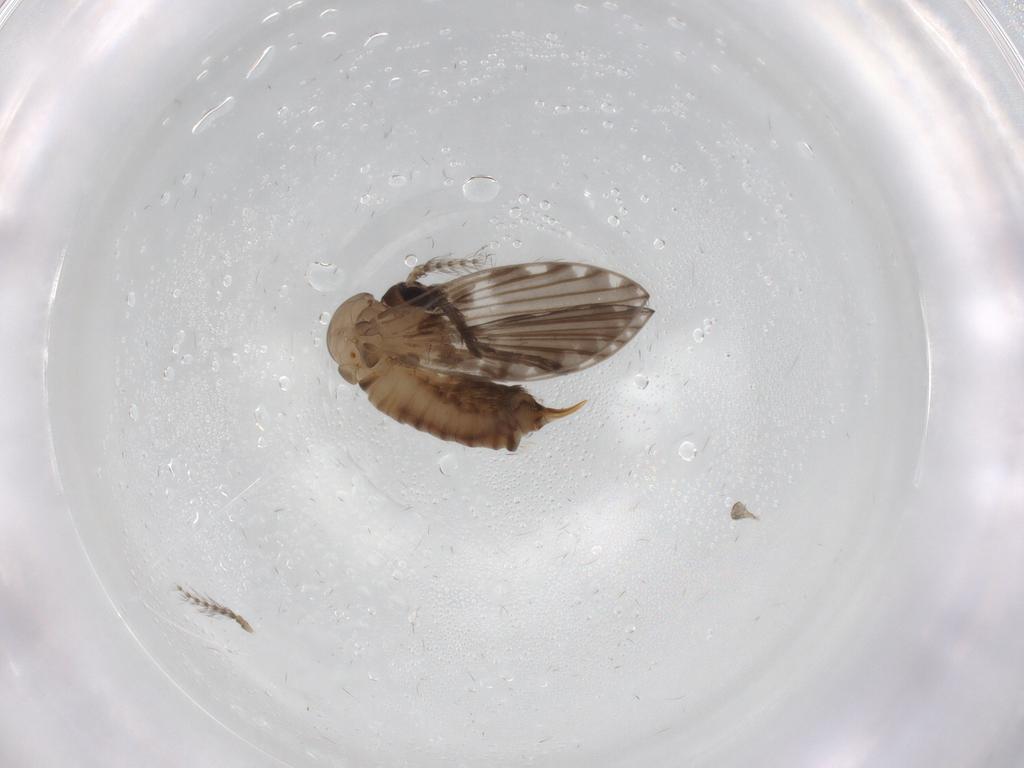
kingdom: Animalia
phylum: Arthropoda
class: Insecta
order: Diptera
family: Psychodidae
